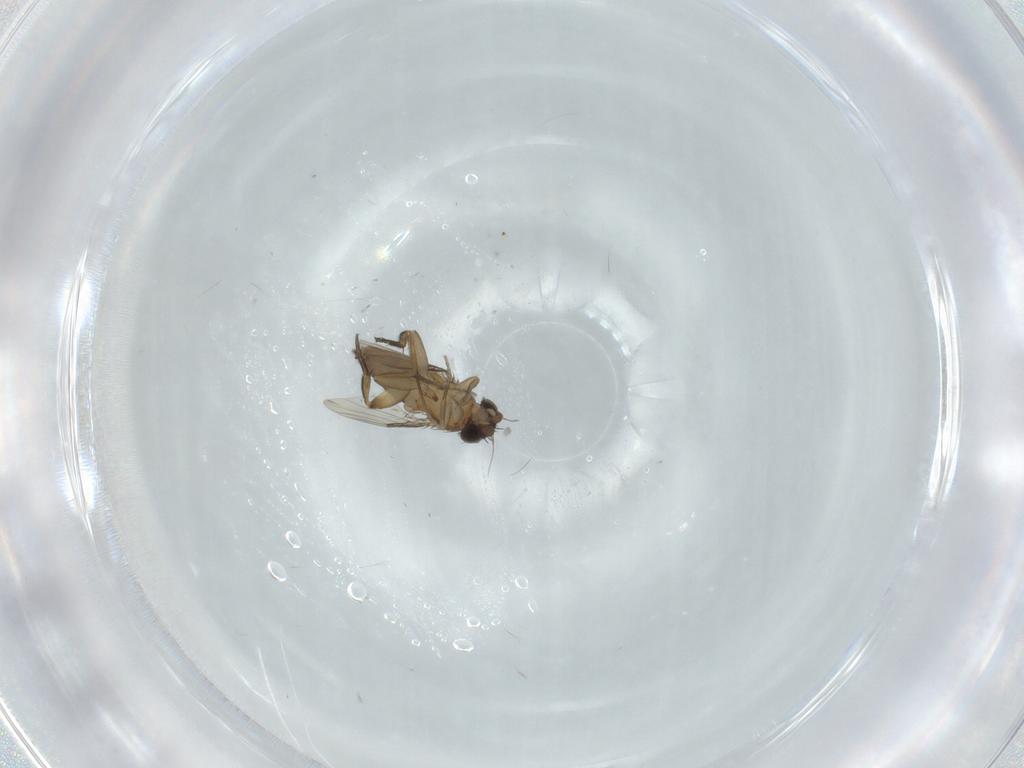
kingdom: Animalia
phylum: Arthropoda
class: Insecta
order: Diptera
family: Phoridae
